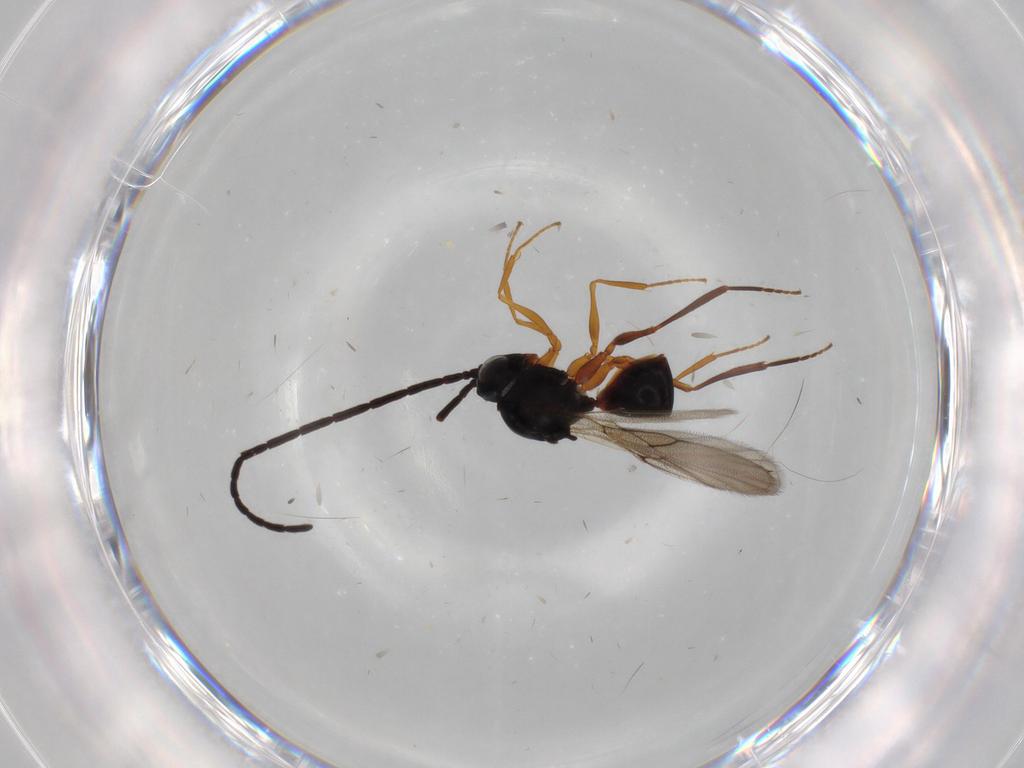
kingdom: Animalia
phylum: Arthropoda
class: Insecta
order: Hymenoptera
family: Figitidae
